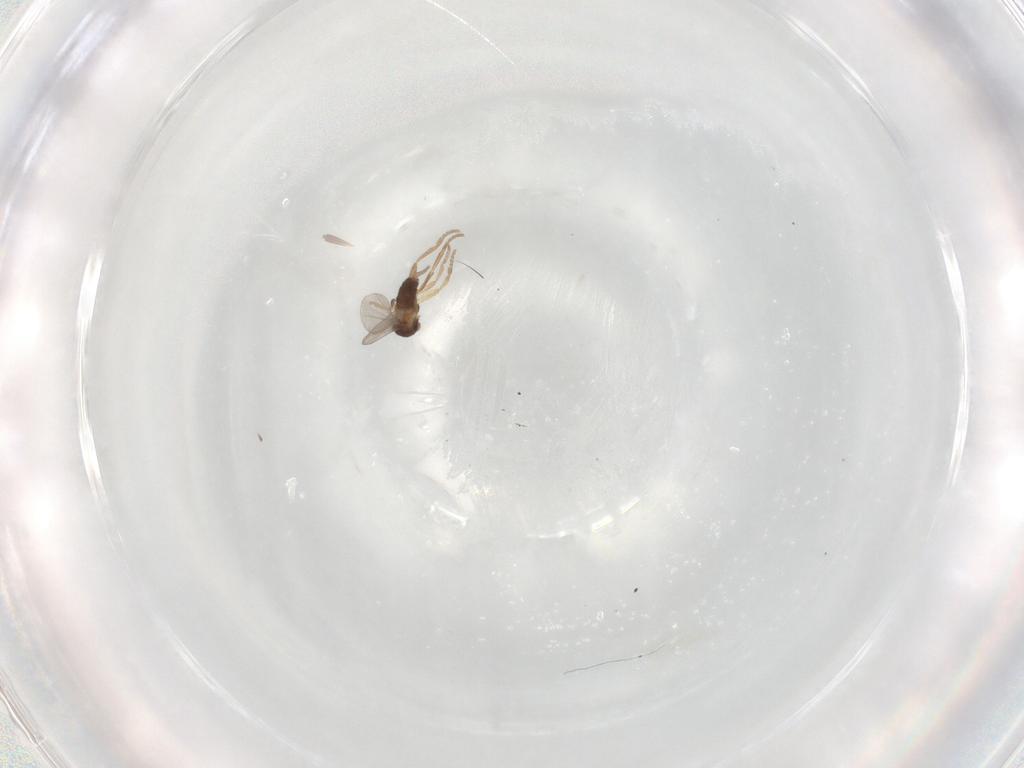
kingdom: Animalia
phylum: Arthropoda
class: Insecta
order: Diptera
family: Phoridae
